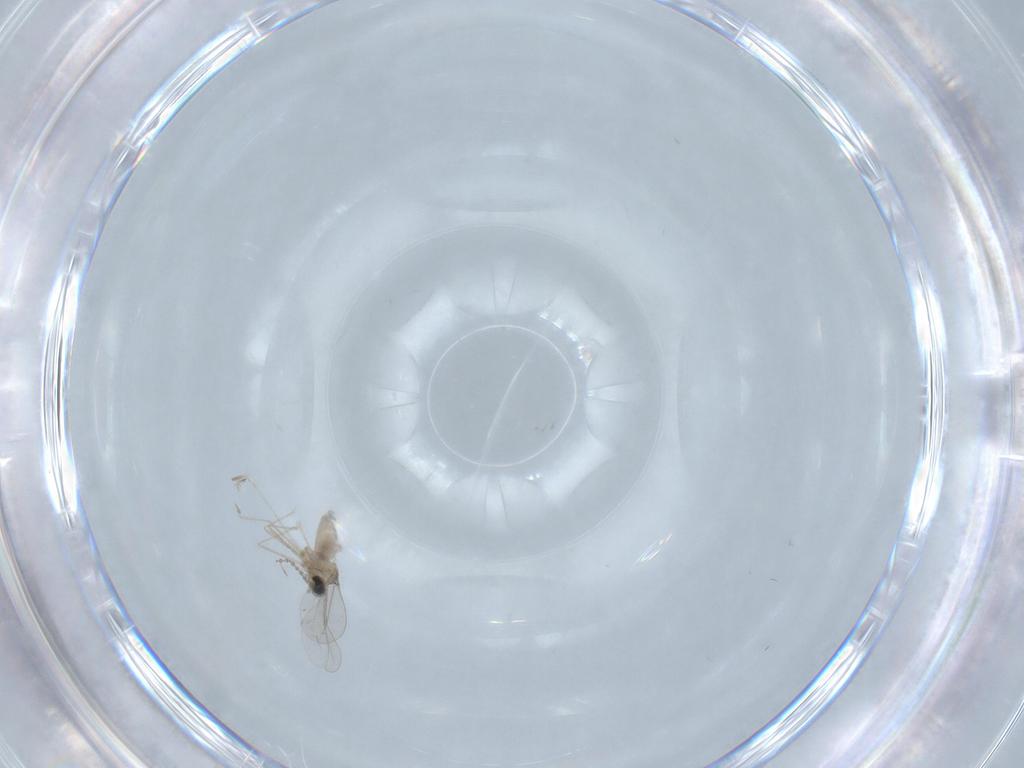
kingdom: Animalia
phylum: Arthropoda
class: Insecta
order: Diptera
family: Cecidomyiidae
